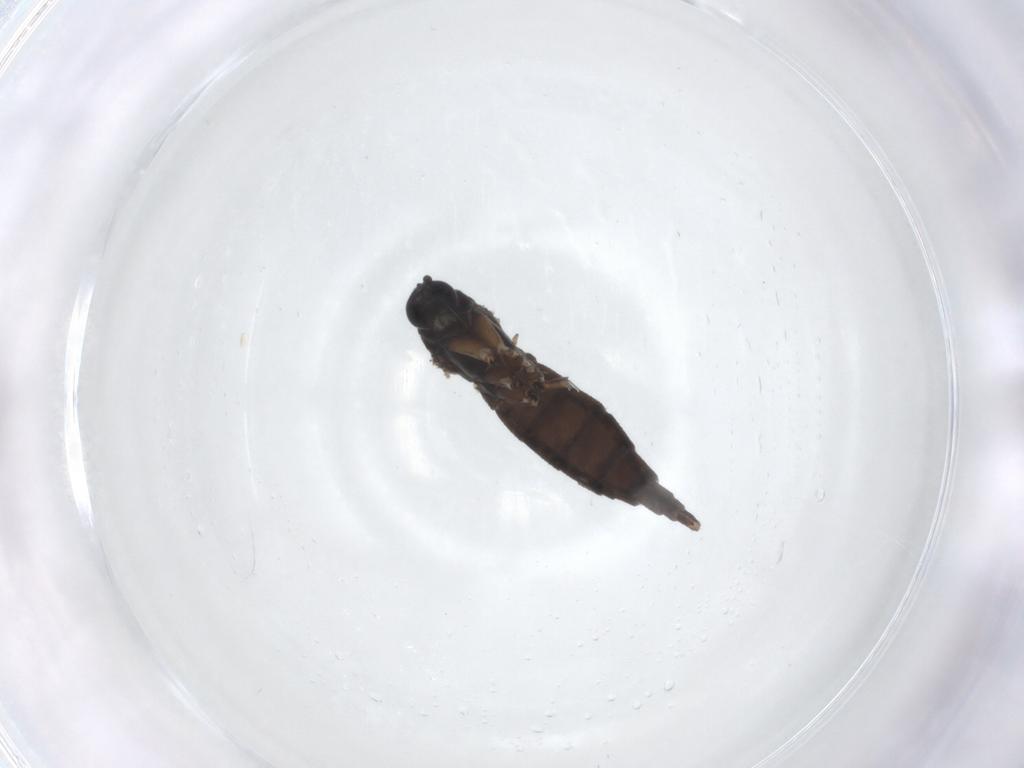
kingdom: Animalia
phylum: Arthropoda
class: Insecta
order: Diptera
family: Sciaridae
